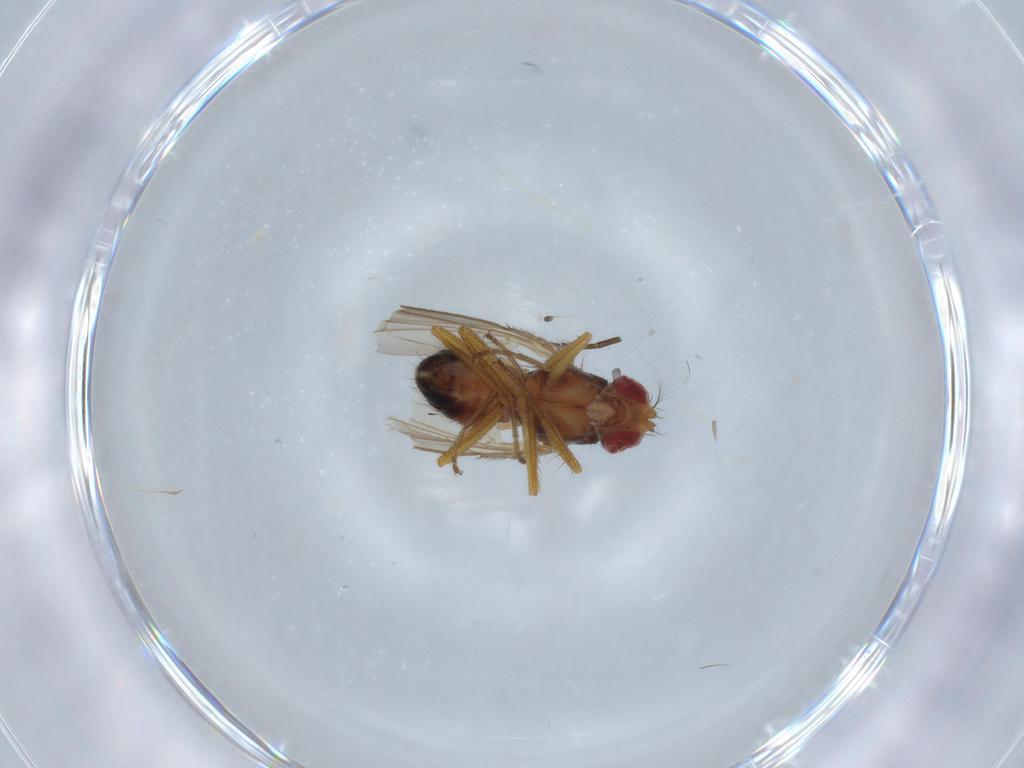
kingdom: Animalia
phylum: Arthropoda
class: Insecta
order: Diptera
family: Drosophilidae
